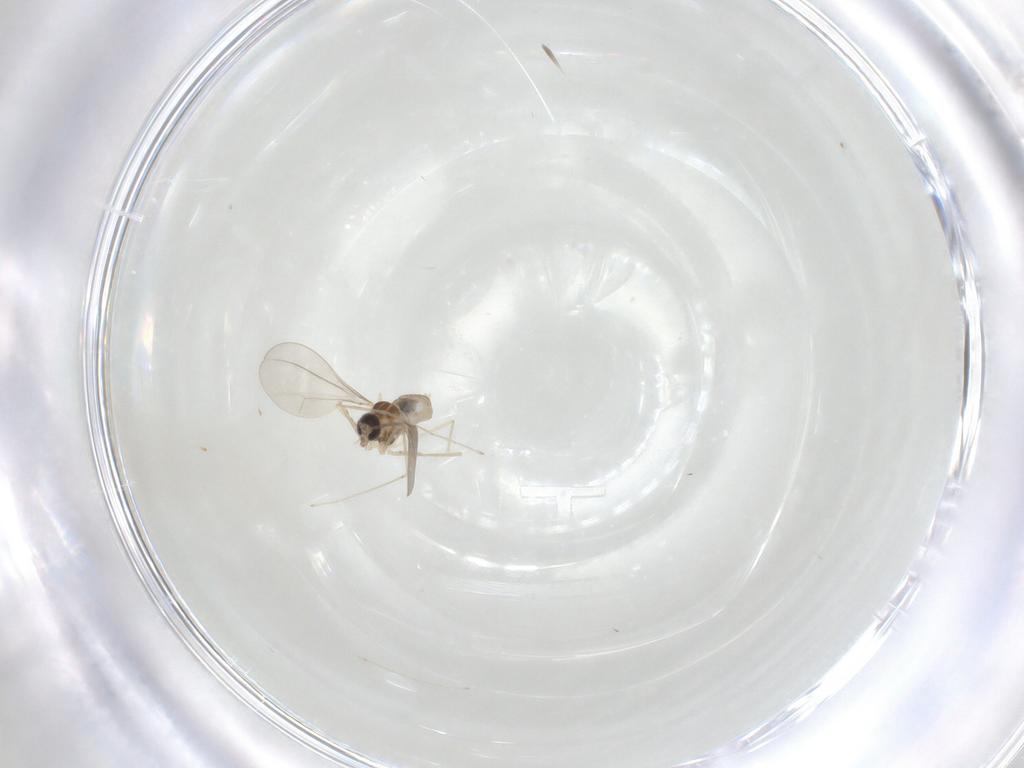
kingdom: Animalia
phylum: Arthropoda
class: Insecta
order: Diptera
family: Cecidomyiidae
